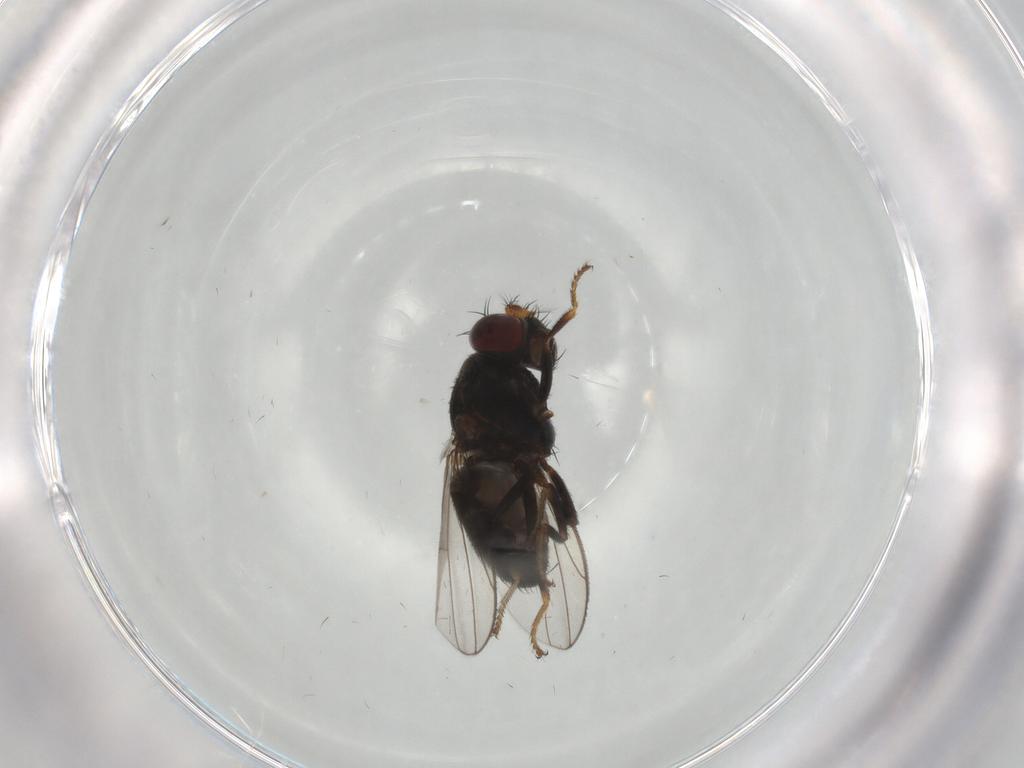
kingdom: Animalia
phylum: Arthropoda
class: Insecta
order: Diptera
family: Ephydridae
